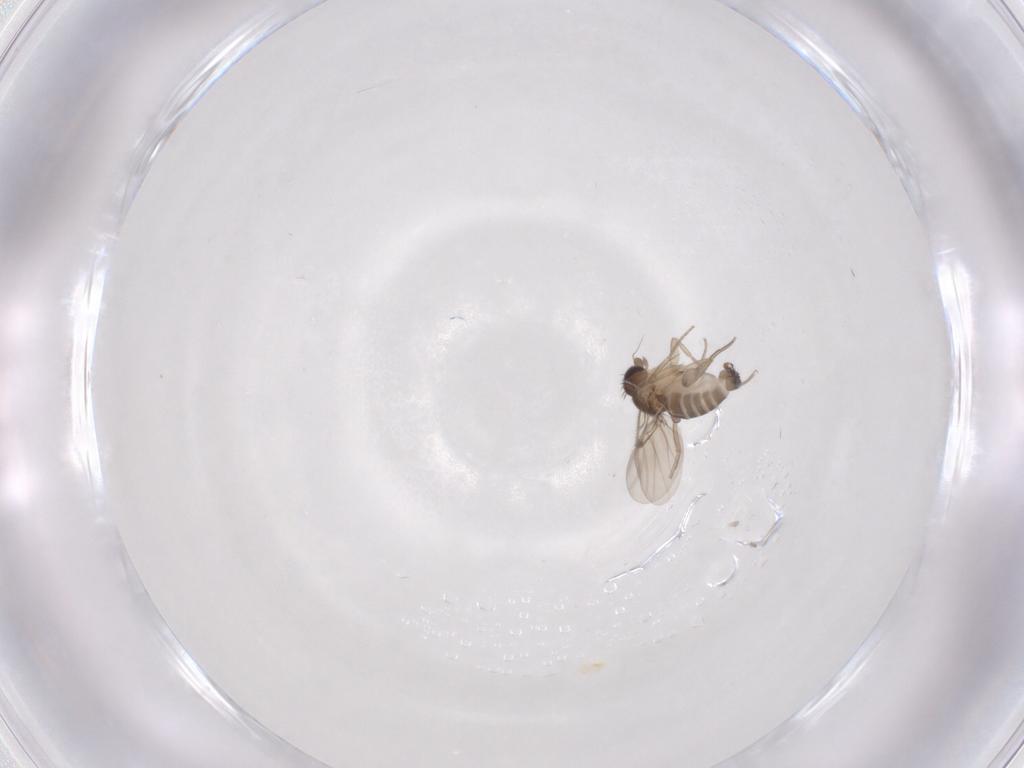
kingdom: Animalia
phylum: Arthropoda
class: Insecta
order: Diptera
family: Phoridae
